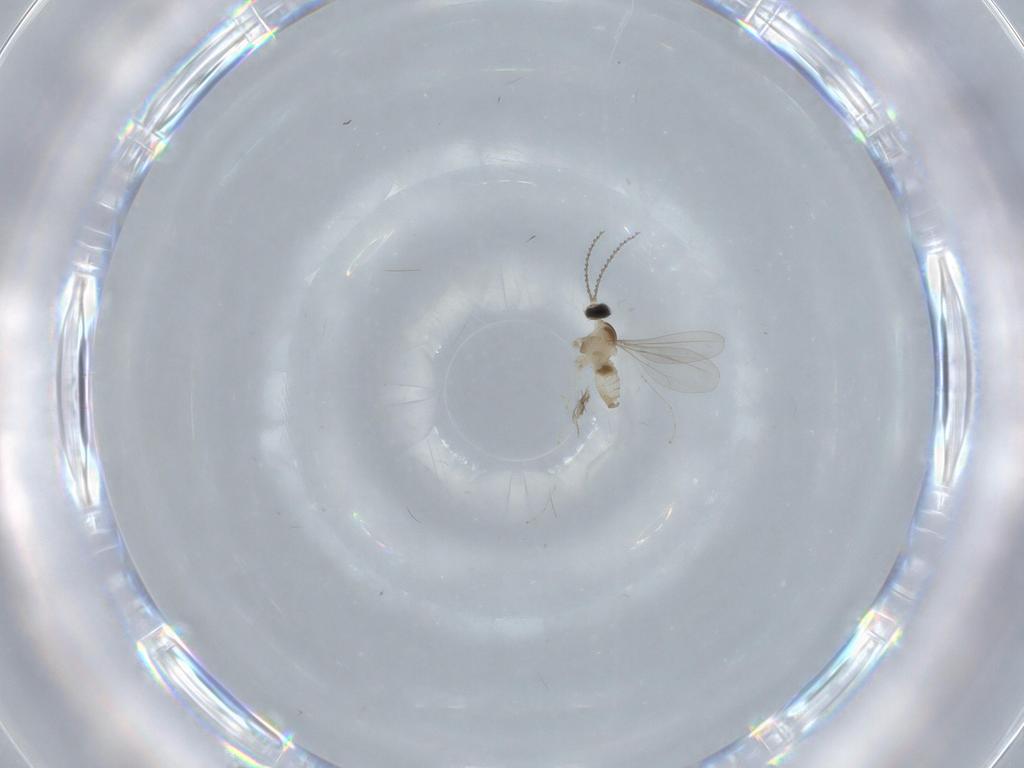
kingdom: Animalia
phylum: Arthropoda
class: Insecta
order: Diptera
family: Cecidomyiidae
